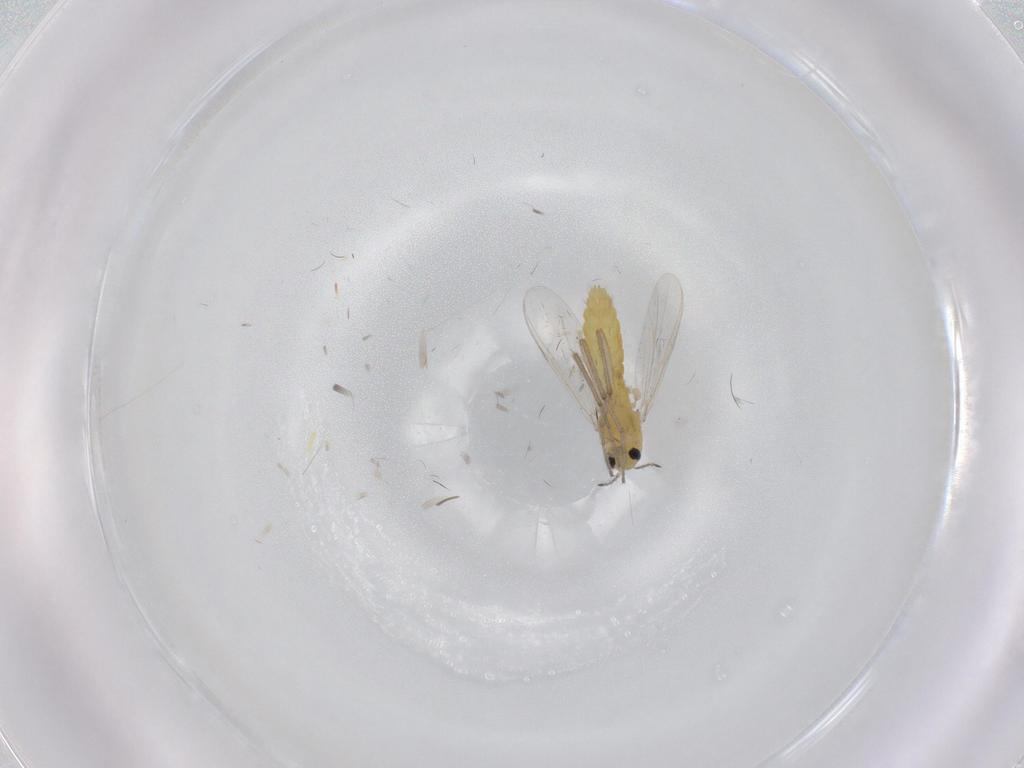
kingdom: Animalia
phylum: Arthropoda
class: Insecta
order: Diptera
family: Chironomidae
